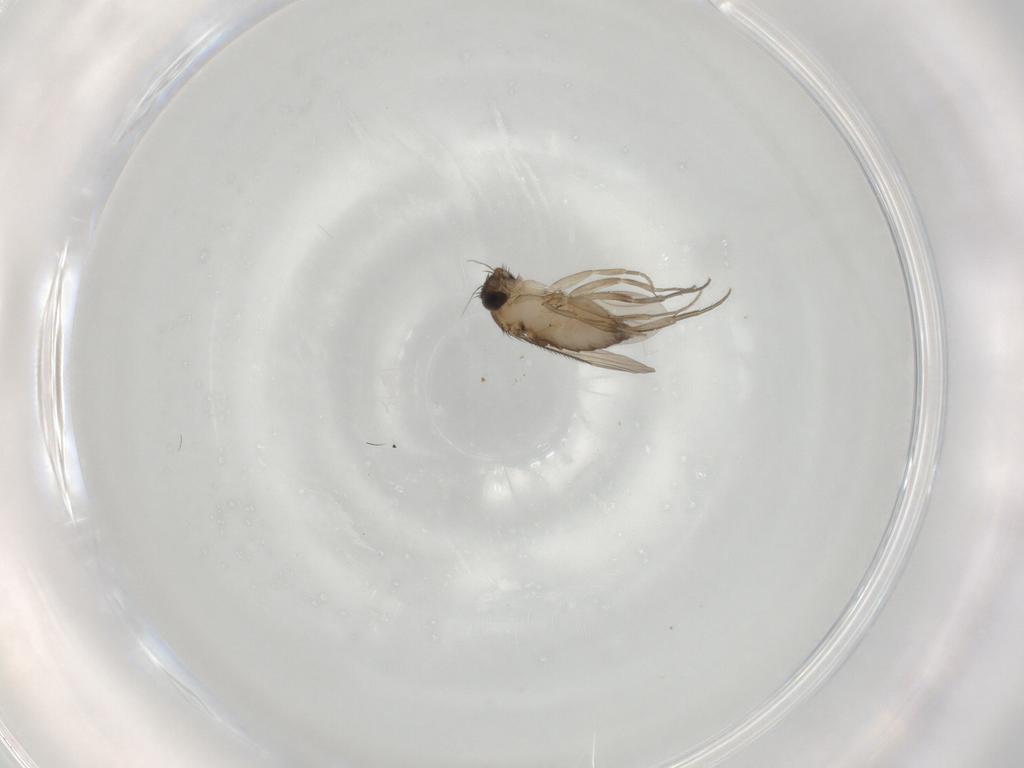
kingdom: Animalia
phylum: Arthropoda
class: Insecta
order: Diptera
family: Phoridae
